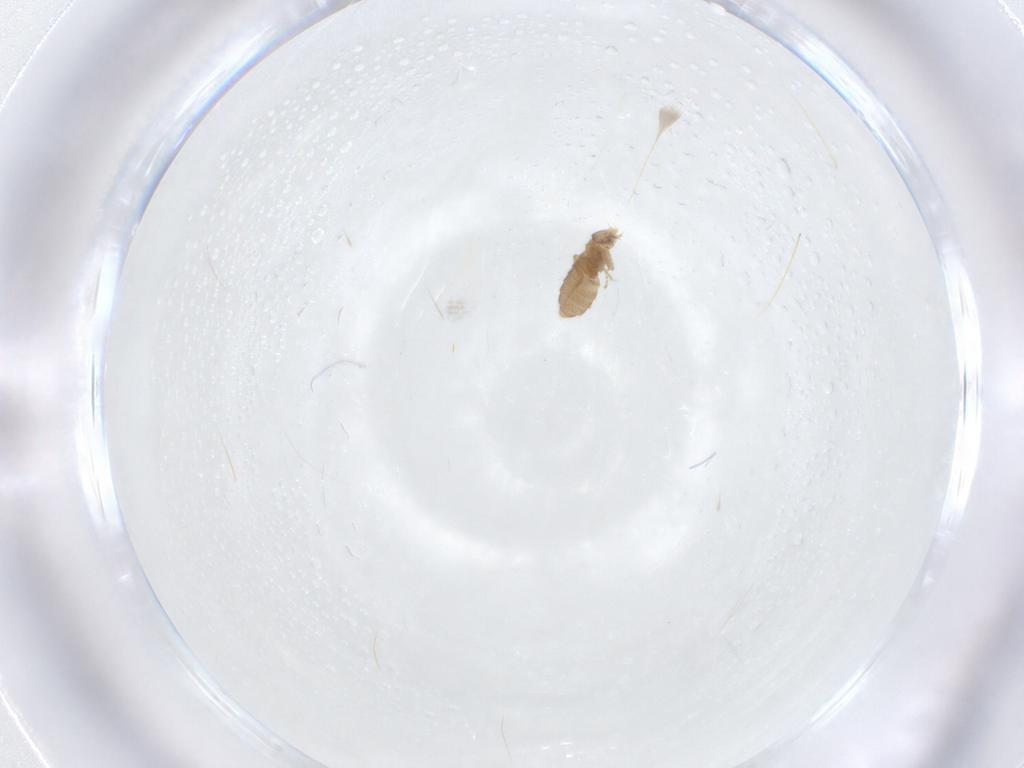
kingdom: Animalia
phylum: Arthropoda
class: Insecta
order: Diptera
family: Phoridae
